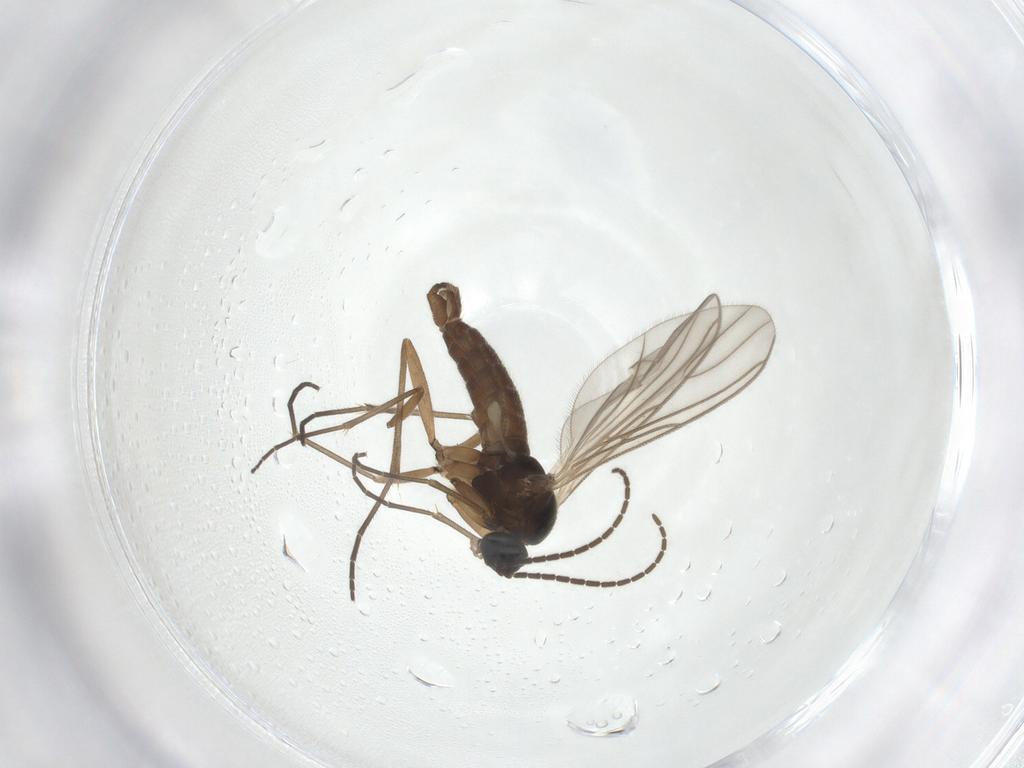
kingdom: Animalia
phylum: Arthropoda
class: Insecta
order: Diptera
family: Sciaridae
